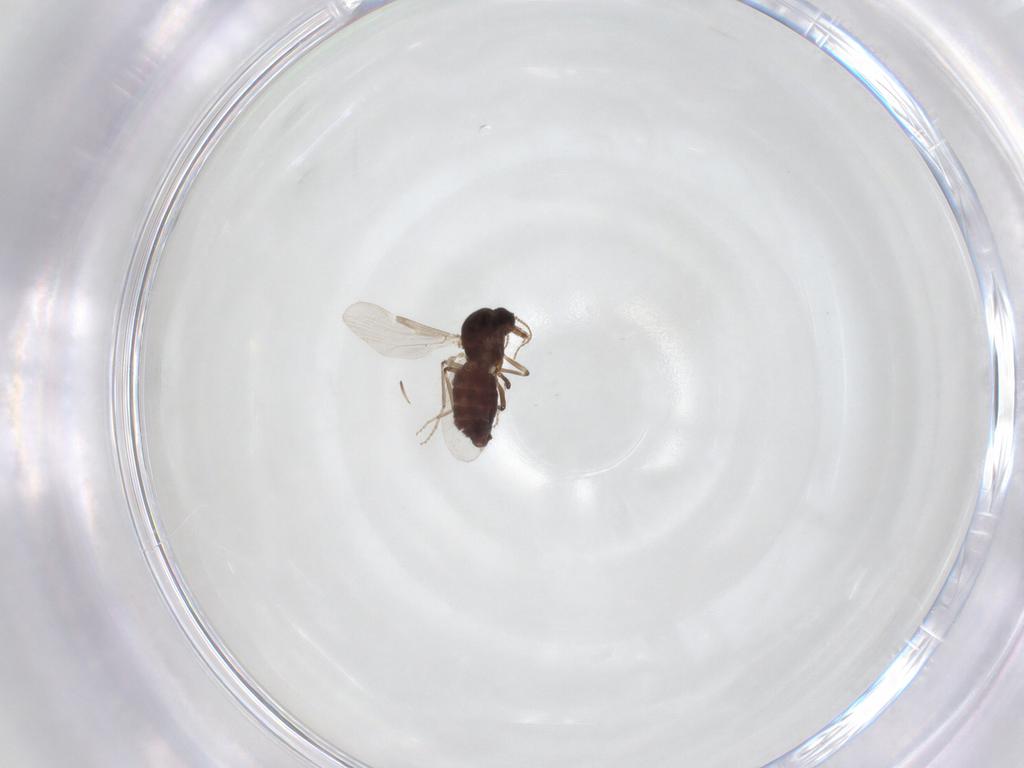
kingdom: Animalia
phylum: Arthropoda
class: Insecta
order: Diptera
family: Ceratopogonidae
